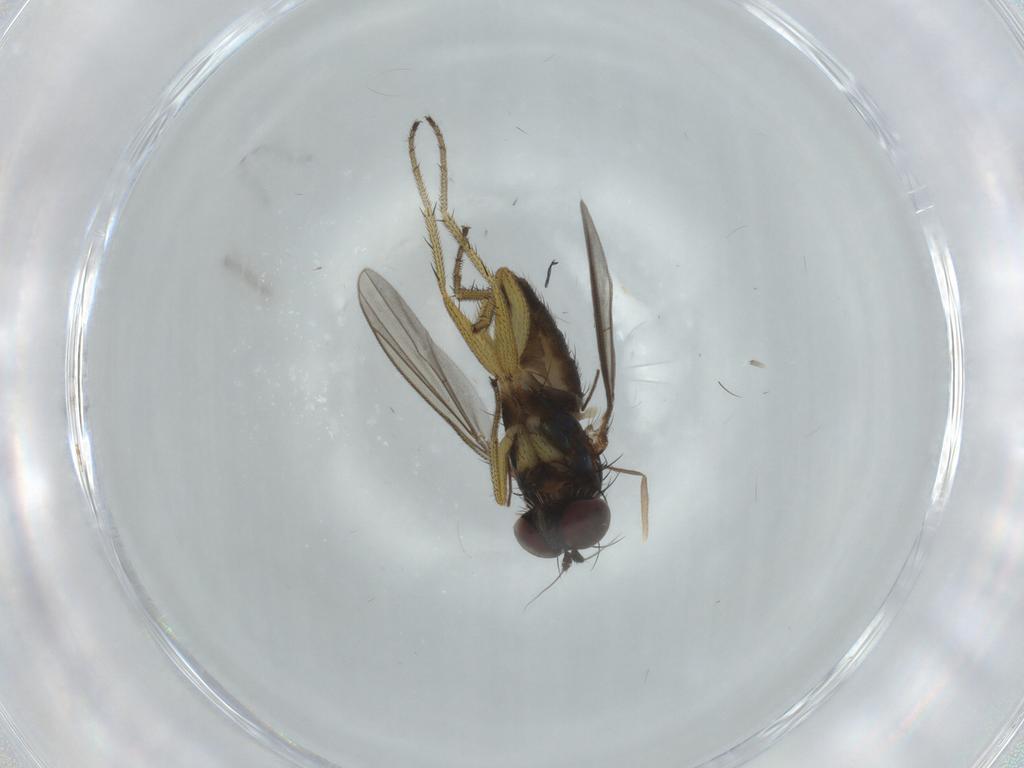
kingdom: Animalia
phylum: Arthropoda
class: Insecta
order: Diptera
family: Dolichopodidae
